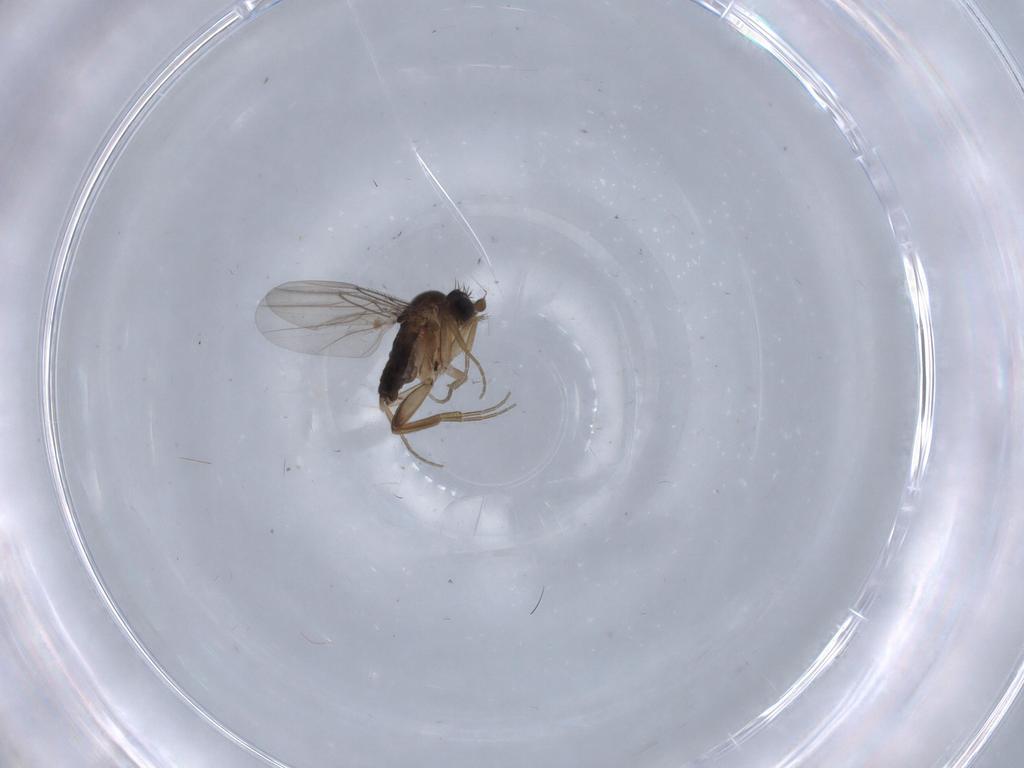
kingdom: Animalia
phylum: Arthropoda
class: Insecta
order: Diptera
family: Phoridae
